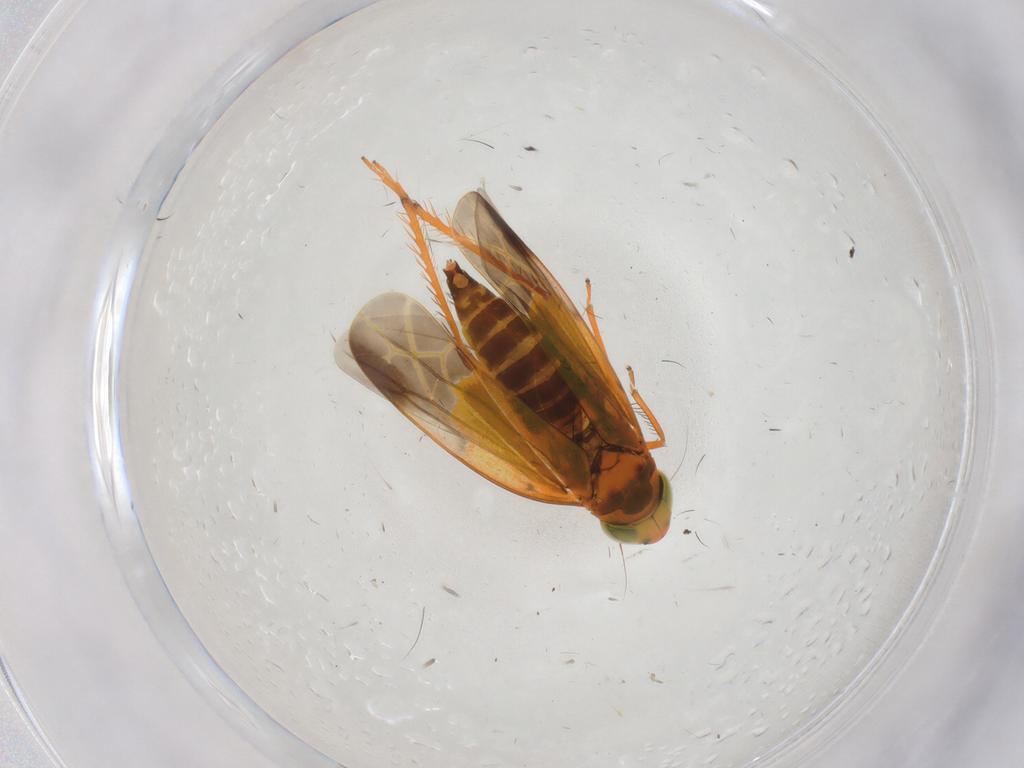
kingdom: Animalia
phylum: Arthropoda
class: Insecta
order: Hemiptera
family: Cicadellidae
